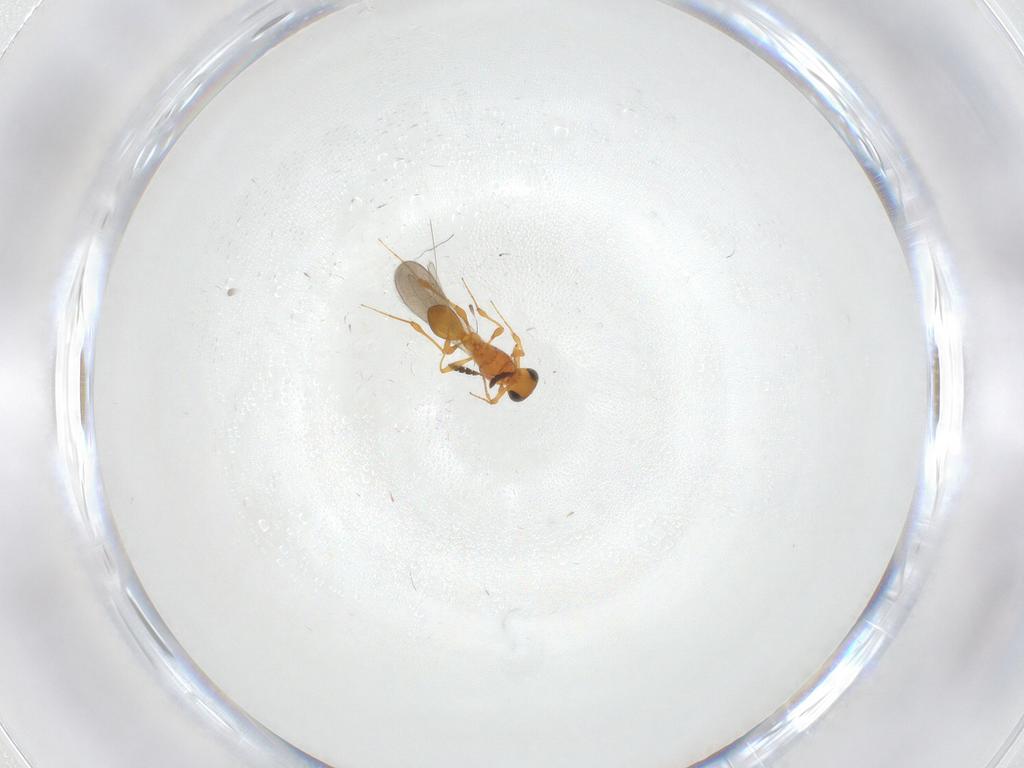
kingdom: Animalia
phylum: Arthropoda
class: Insecta
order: Hymenoptera
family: Platygastridae
